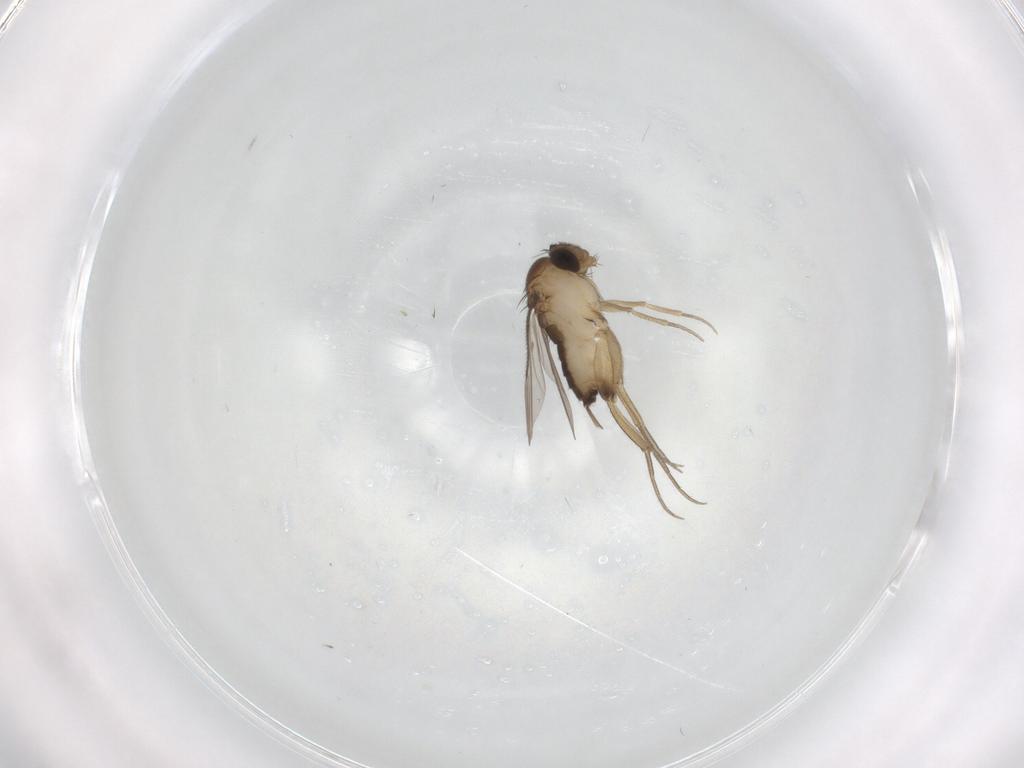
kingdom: Animalia
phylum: Arthropoda
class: Insecta
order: Diptera
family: Phoridae
